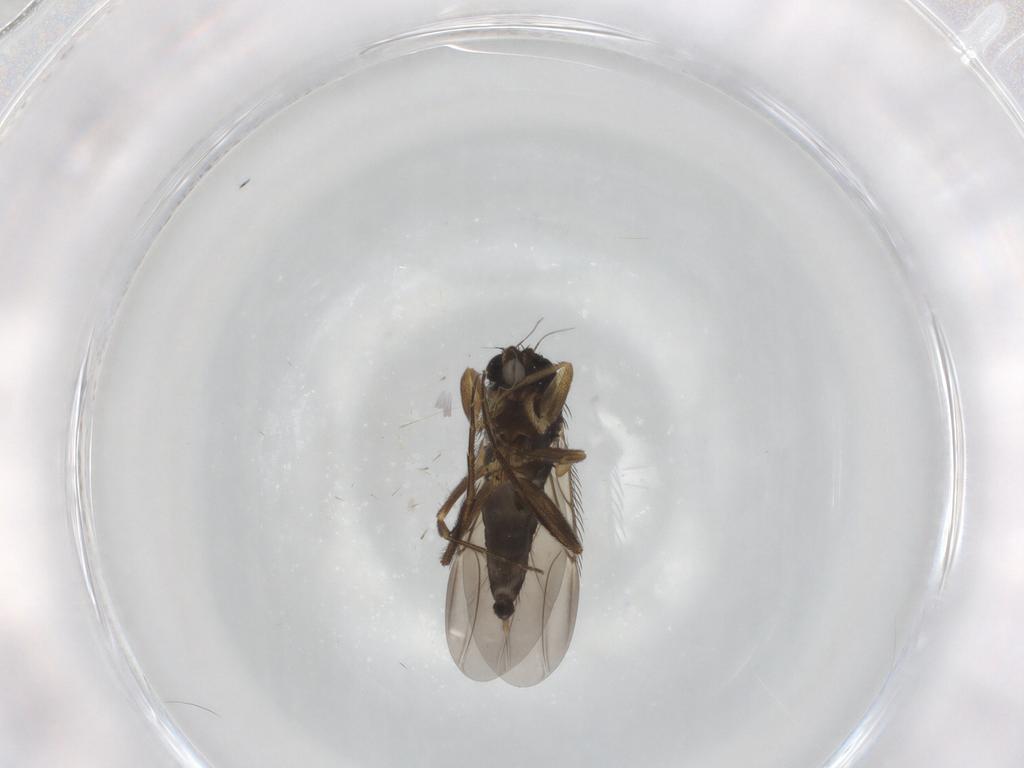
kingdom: Animalia
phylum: Arthropoda
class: Insecta
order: Diptera
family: Phoridae
